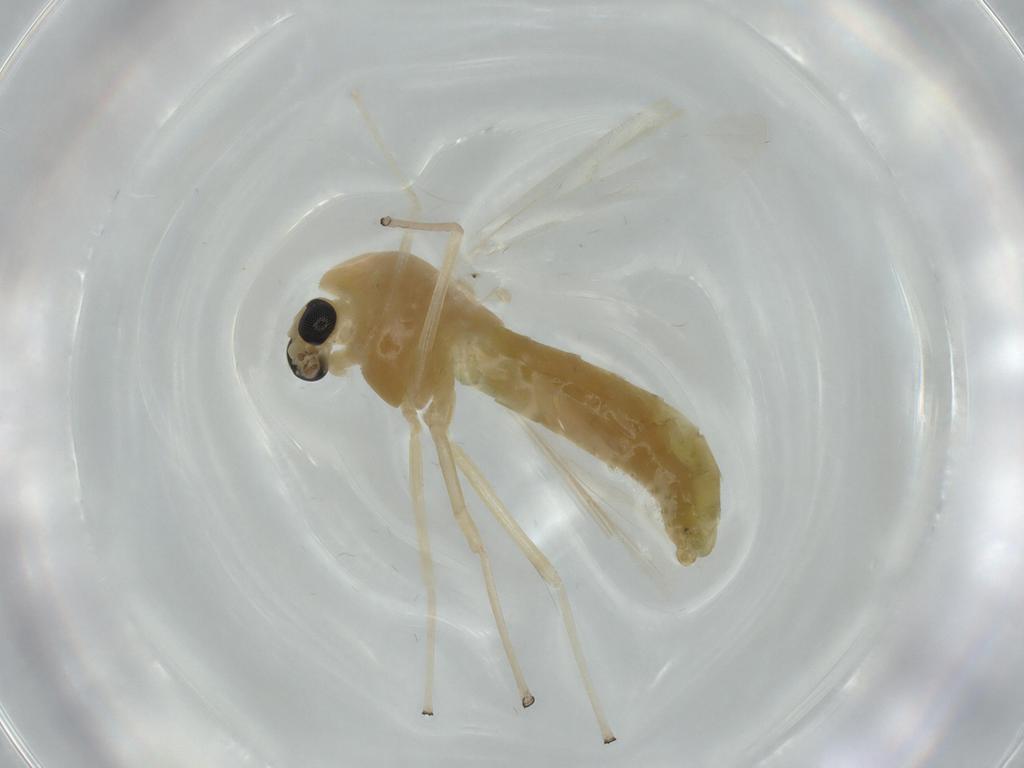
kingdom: Animalia
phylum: Arthropoda
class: Insecta
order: Diptera
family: Chironomidae
